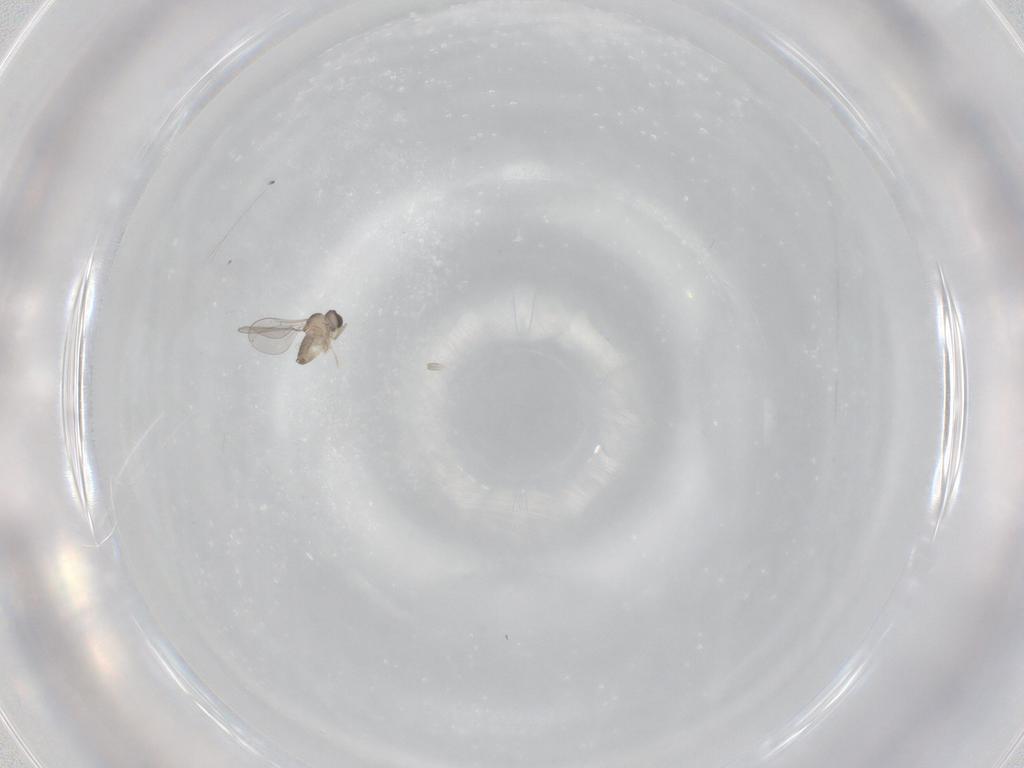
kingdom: Animalia
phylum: Arthropoda
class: Insecta
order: Diptera
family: Cecidomyiidae
